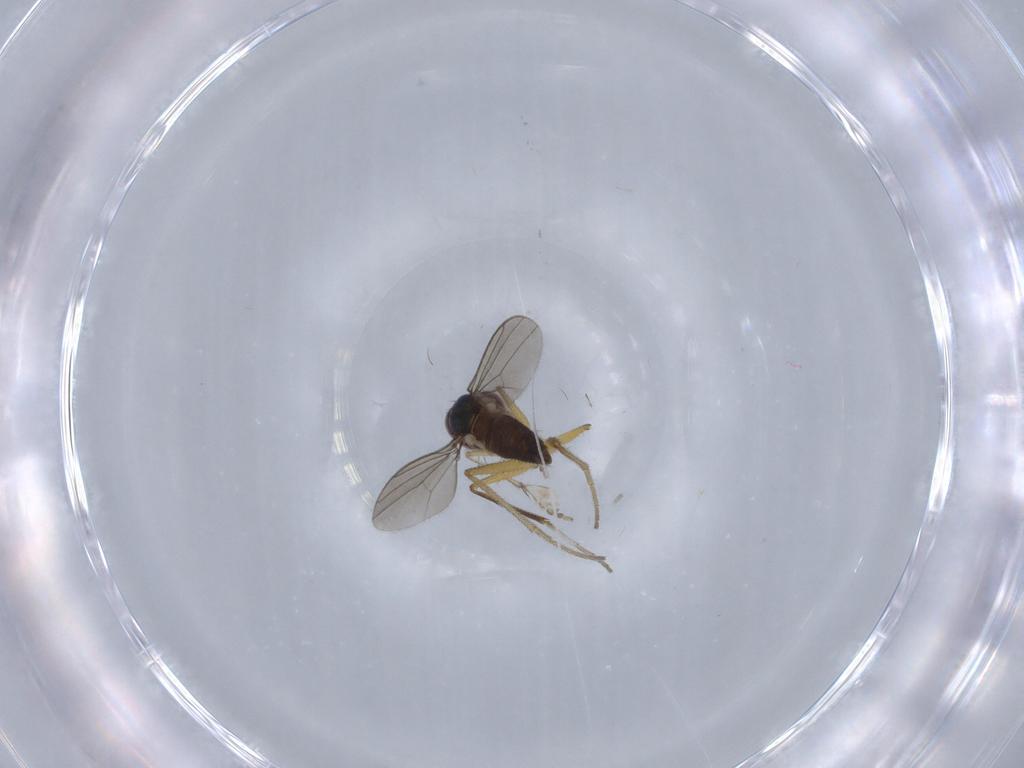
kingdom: Animalia
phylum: Arthropoda
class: Insecta
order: Diptera
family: Dolichopodidae
